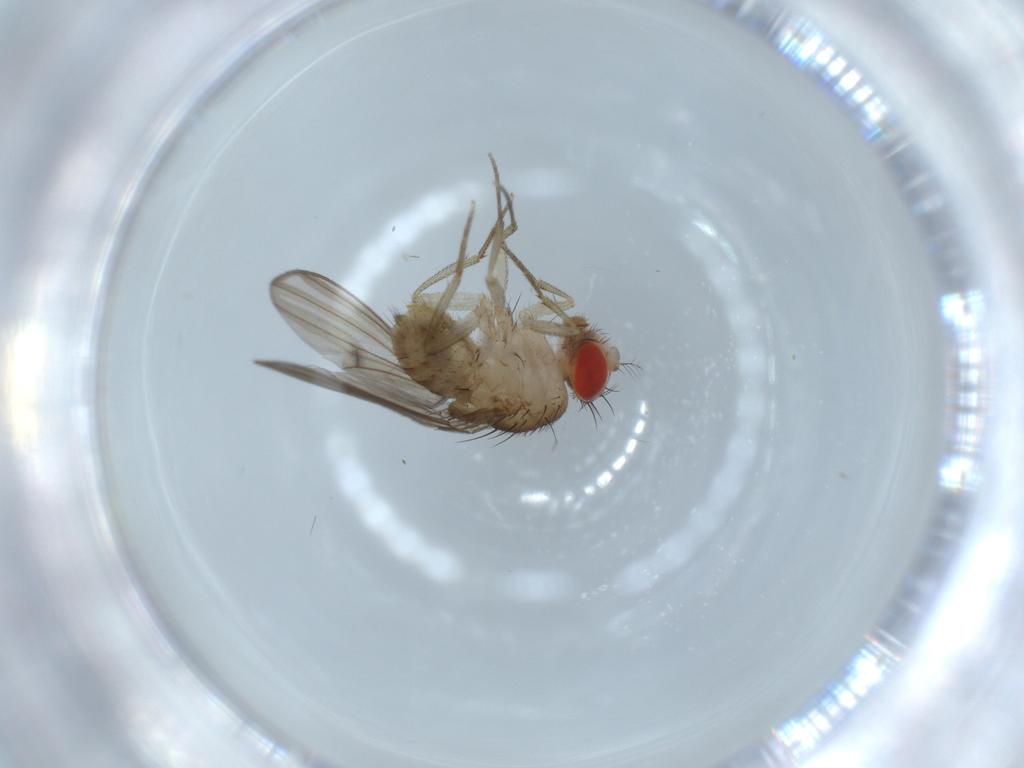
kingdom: Animalia
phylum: Arthropoda
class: Insecta
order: Diptera
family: Drosophilidae
